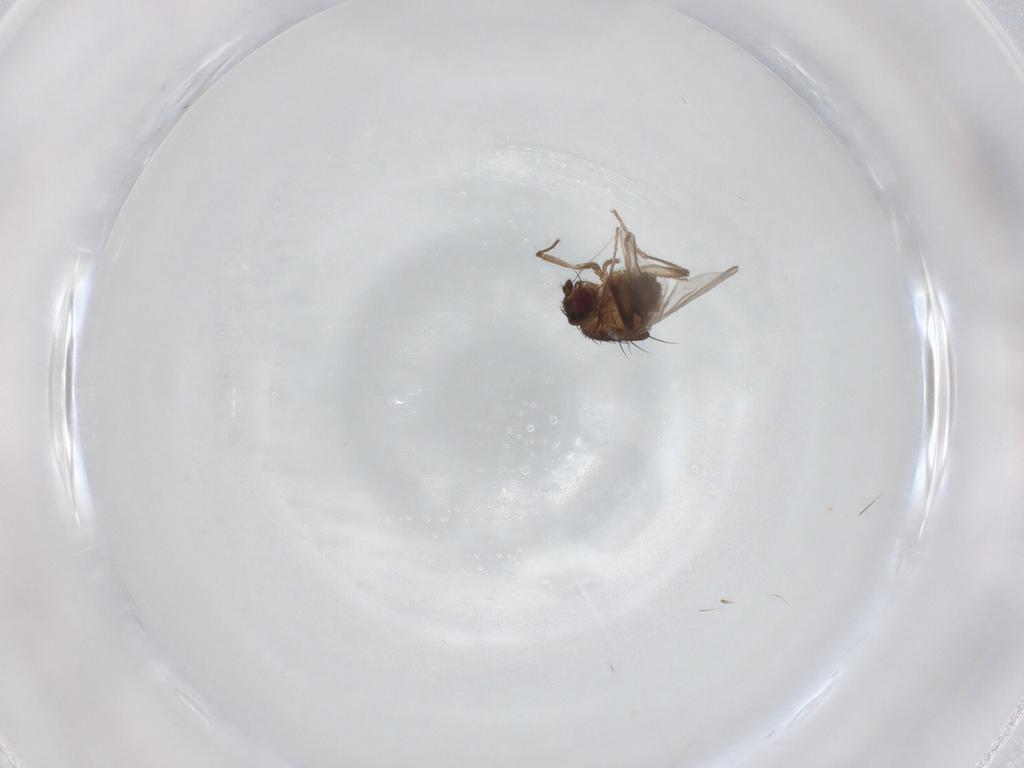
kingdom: Animalia
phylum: Arthropoda
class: Insecta
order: Diptera
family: Sphaeroceridae
